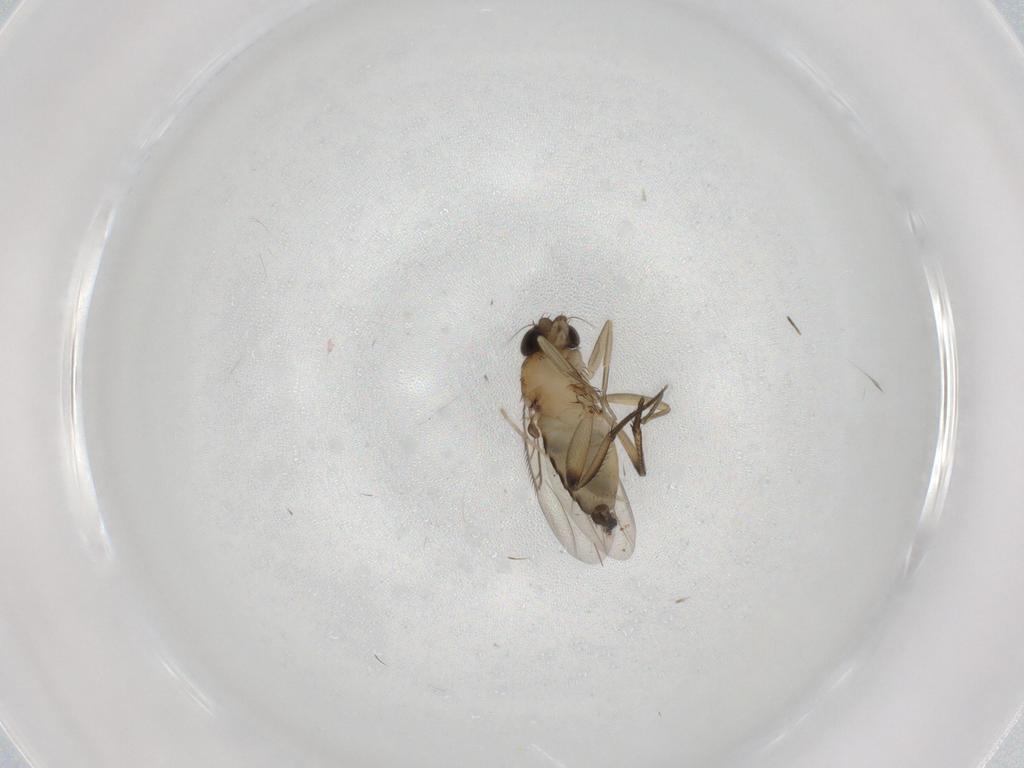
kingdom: Animalia
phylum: Arthropoda
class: Insecta
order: Diptera
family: Phoridae
